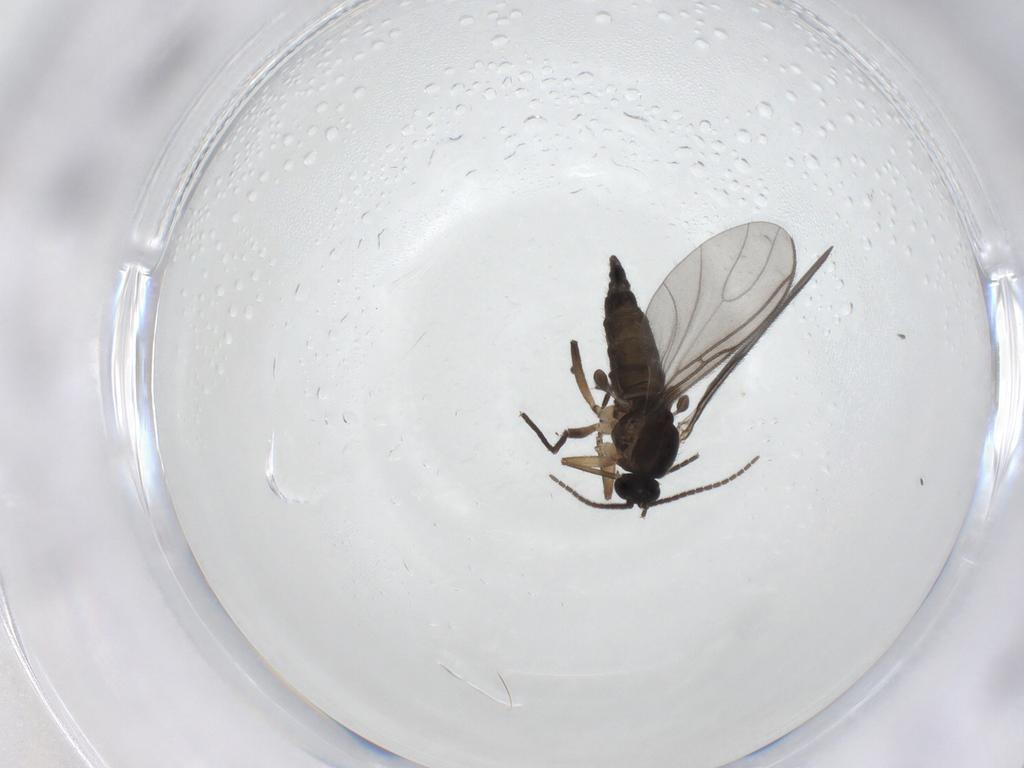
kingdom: Animalia
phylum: Arthropoda
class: Insecta
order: Diptera
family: Sciaridae
